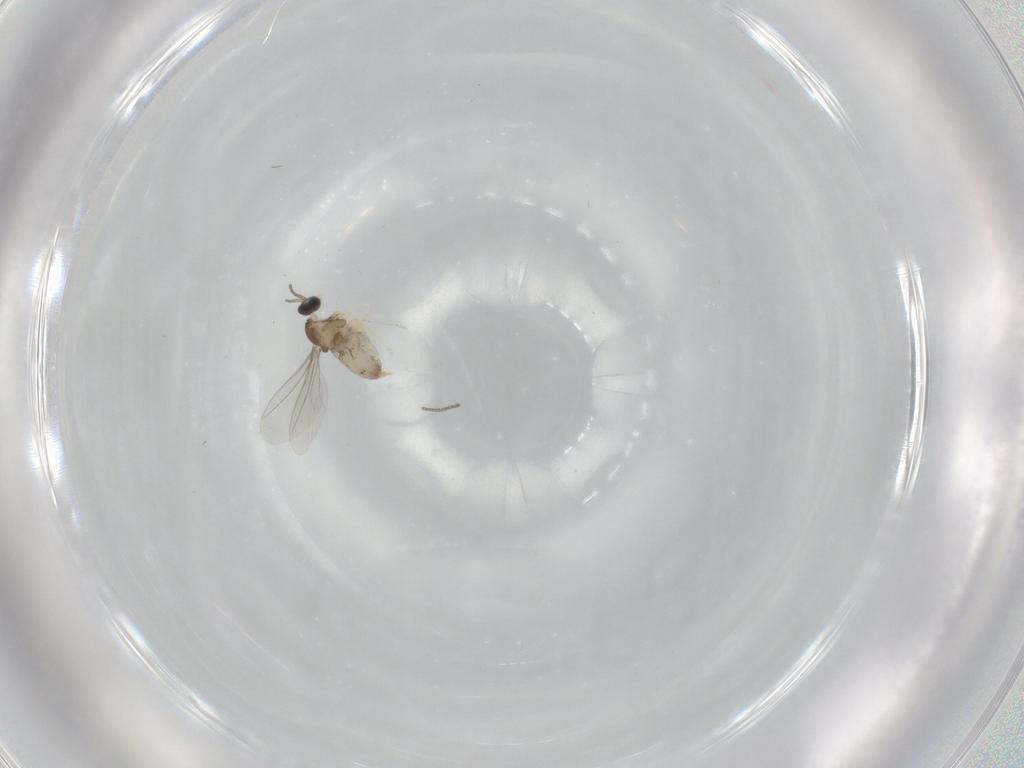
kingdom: Animalia
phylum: Arthropoda
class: Insecta
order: Diptera
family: Cecidomyiidae
